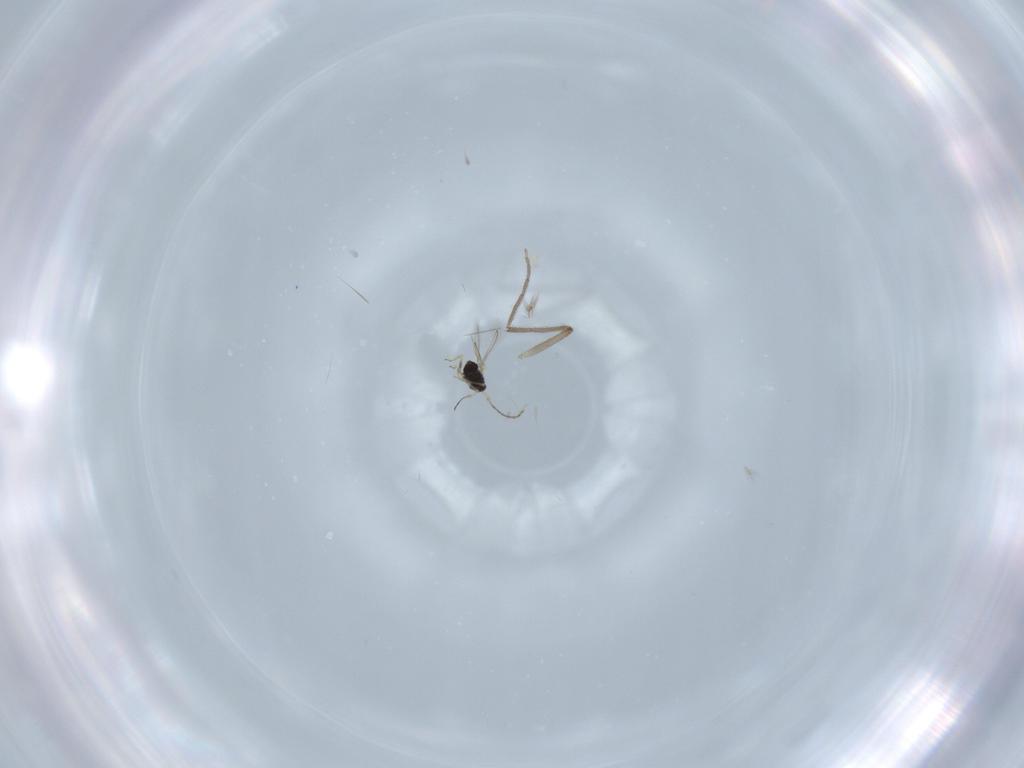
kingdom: Animalia
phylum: Arthropoda
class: Insecta
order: Hymenoptera
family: Mymaridae
